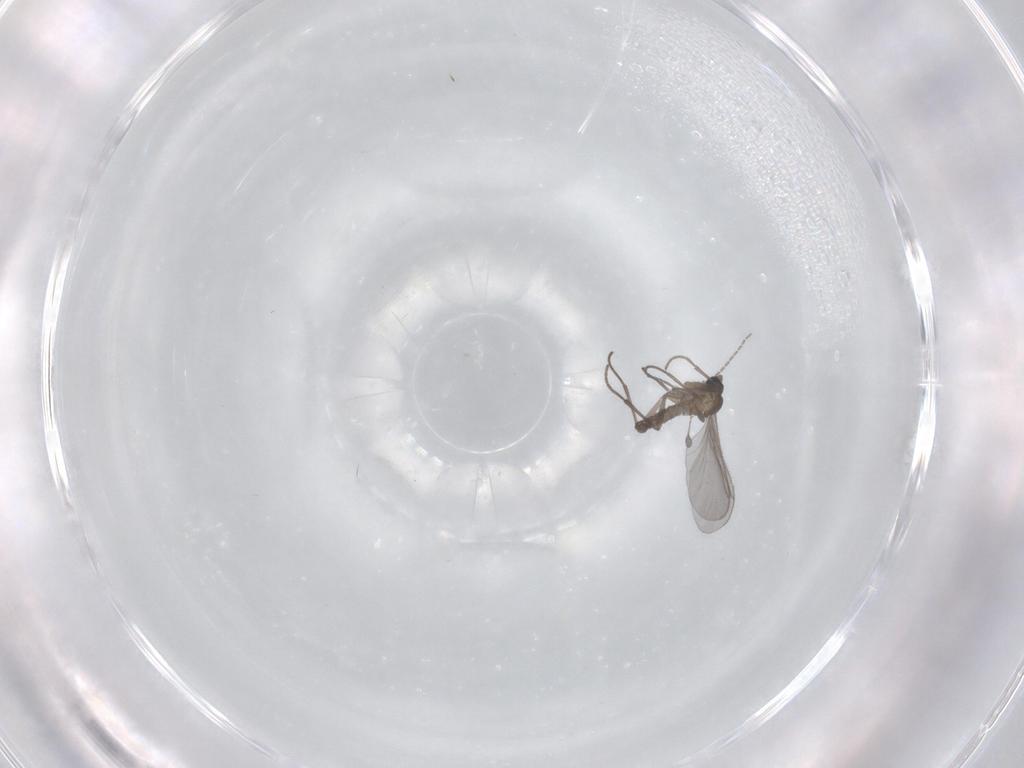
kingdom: Animalia
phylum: Arthropoda
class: Insecta
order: Diptera
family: Sciaridae
